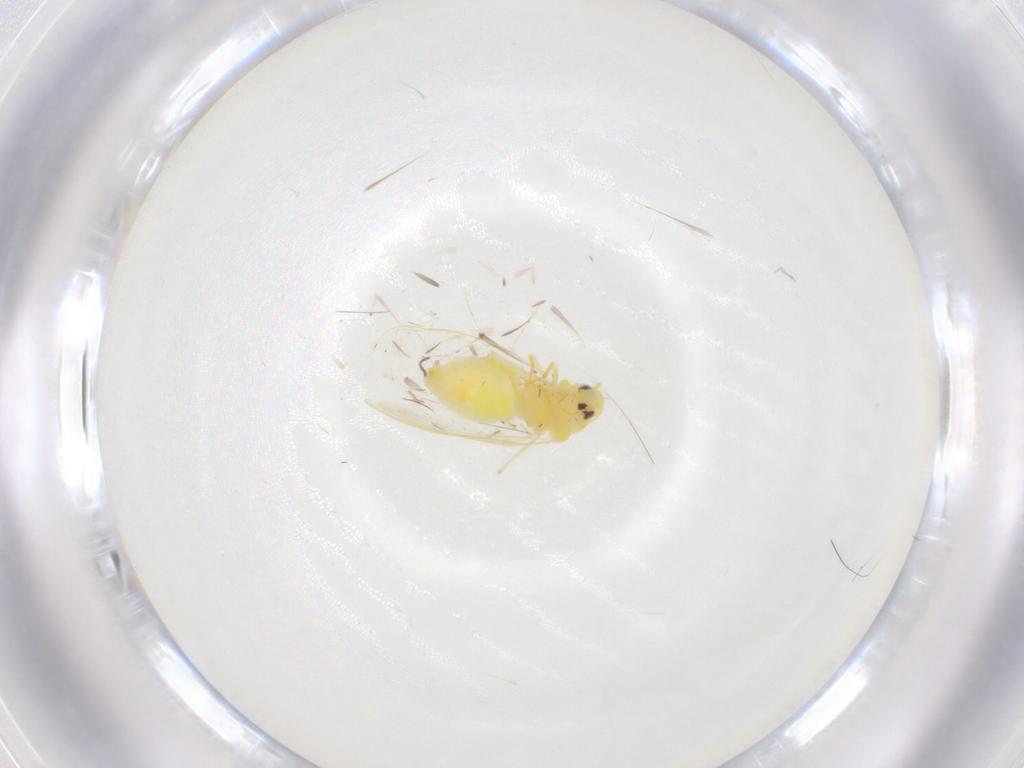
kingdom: Animalia
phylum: Arthropoda
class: Insecta
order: Hemiptera
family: Aleyrodidae
